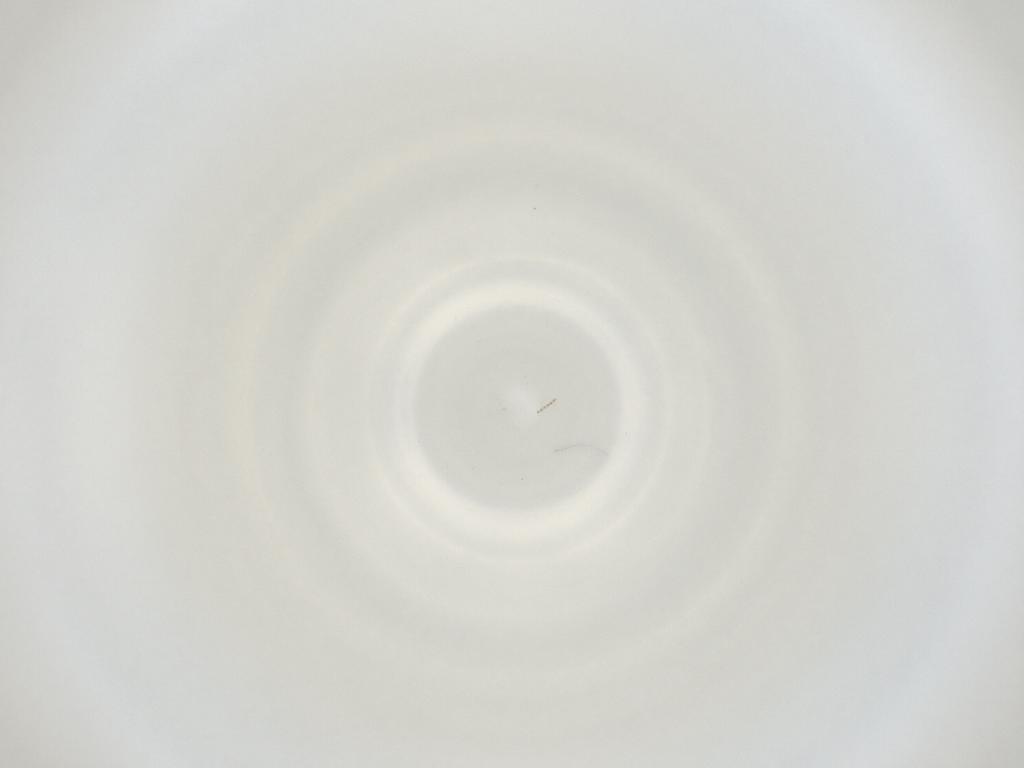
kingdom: Animalia
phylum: Arthropoda
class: Insecta
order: Diptera
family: Cecidomyiidae
